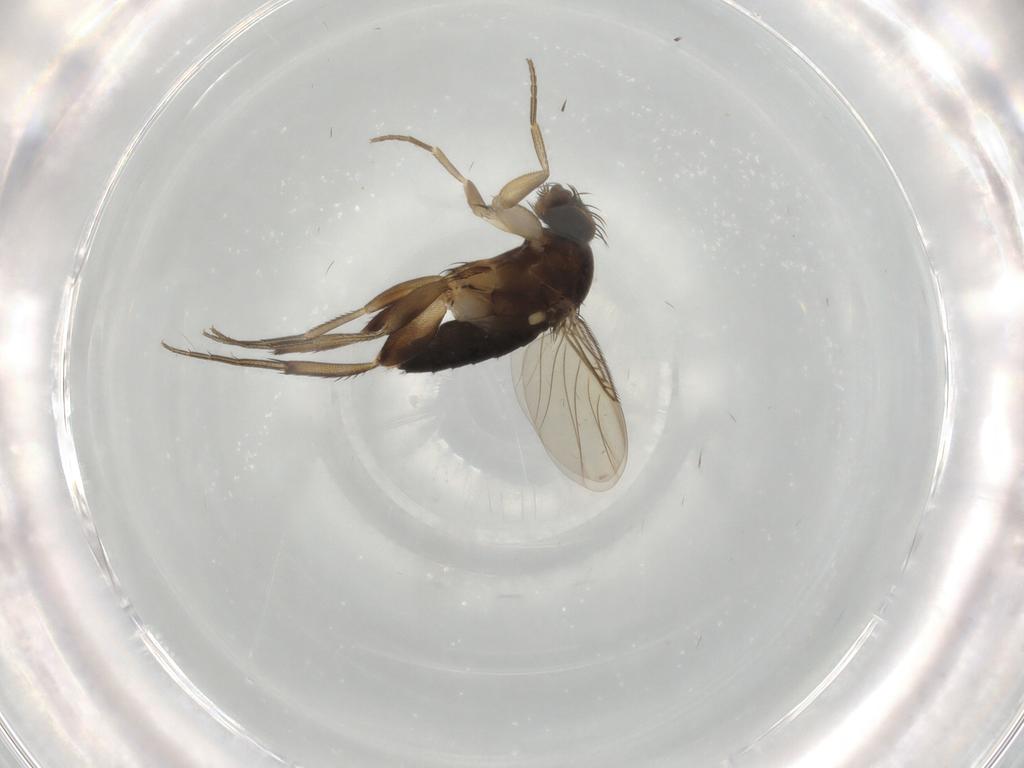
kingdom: Animalia
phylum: Arthropoda
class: Insecta
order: Diptera
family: Phoridae
